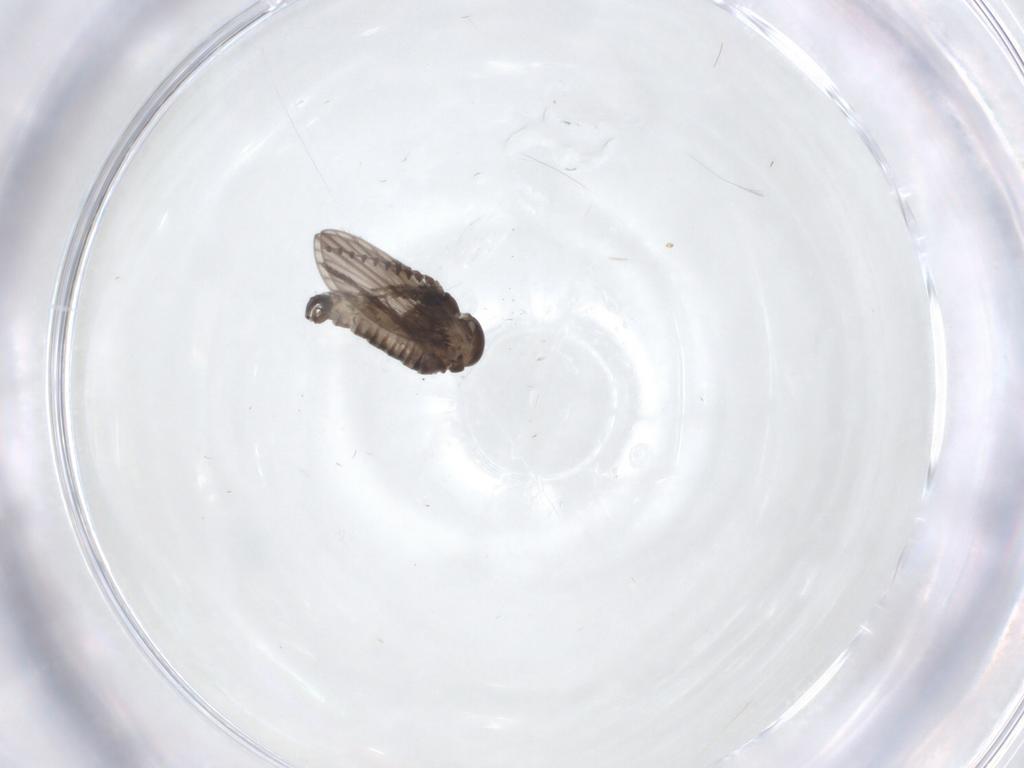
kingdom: Animalia
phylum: Arthropoda
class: Insecta
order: Diptera
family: Psychodidae
